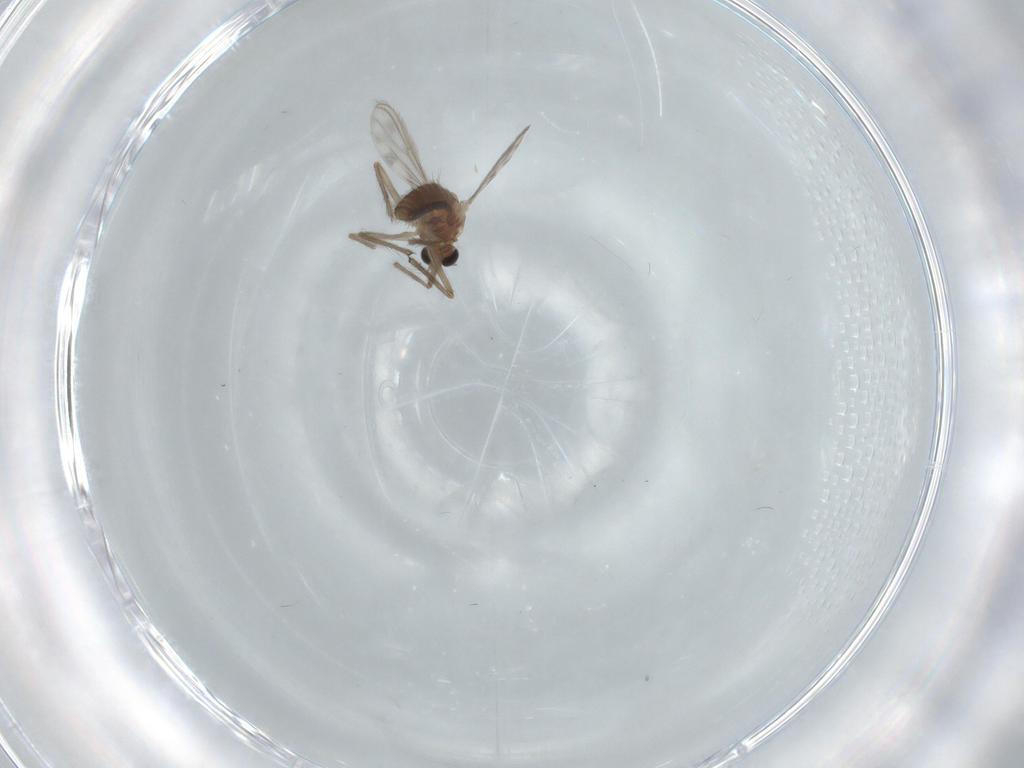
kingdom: Animalia
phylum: Arthropoda
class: Insecta
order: Diptera
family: Chironomidae
